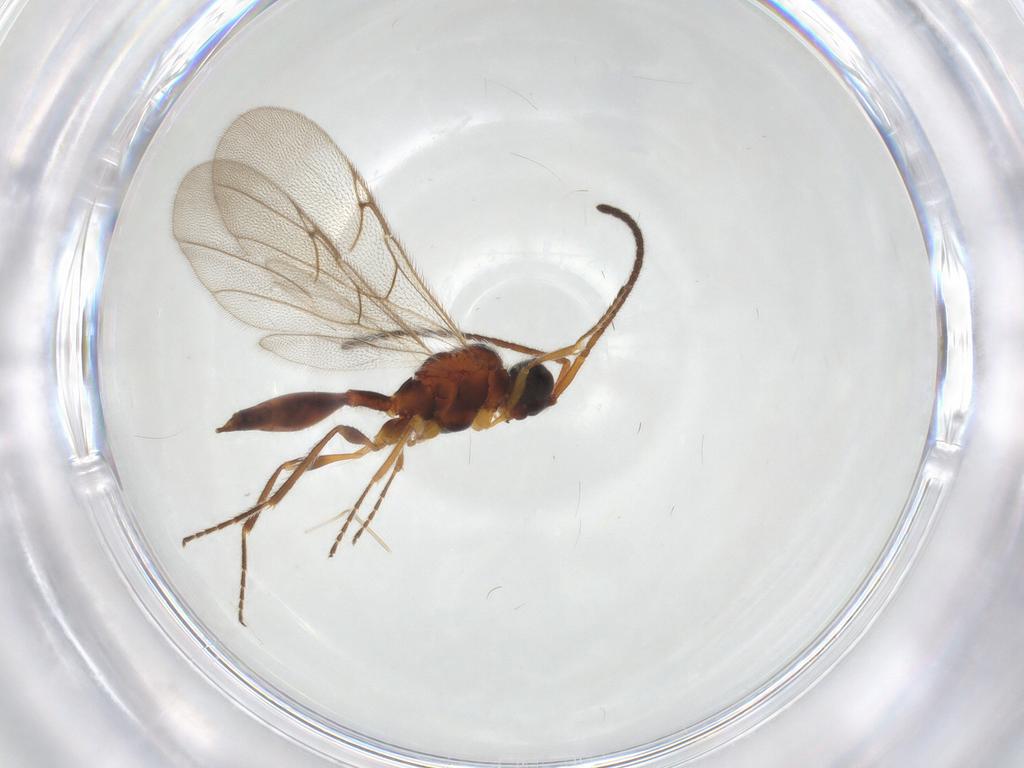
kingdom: Animalia
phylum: Arthropoda
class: Insecta
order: Hymenoptera
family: Diapriidae
